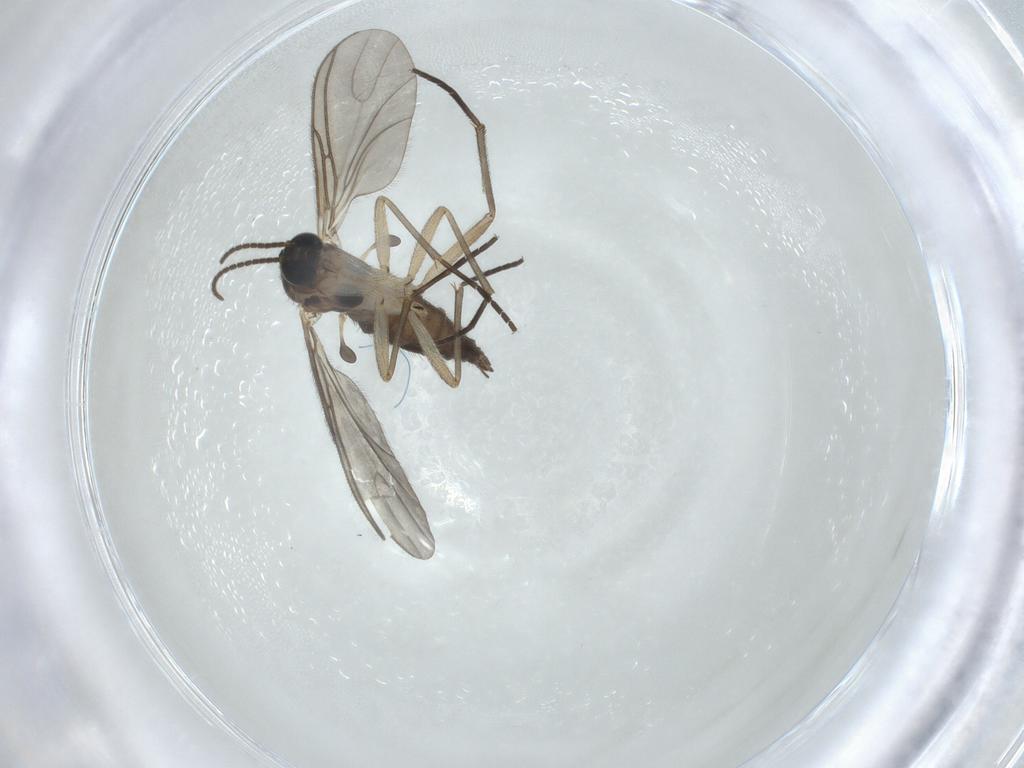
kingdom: Animalia
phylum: Arthropoda
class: Insecta
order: Diptera
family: Sciaridae
